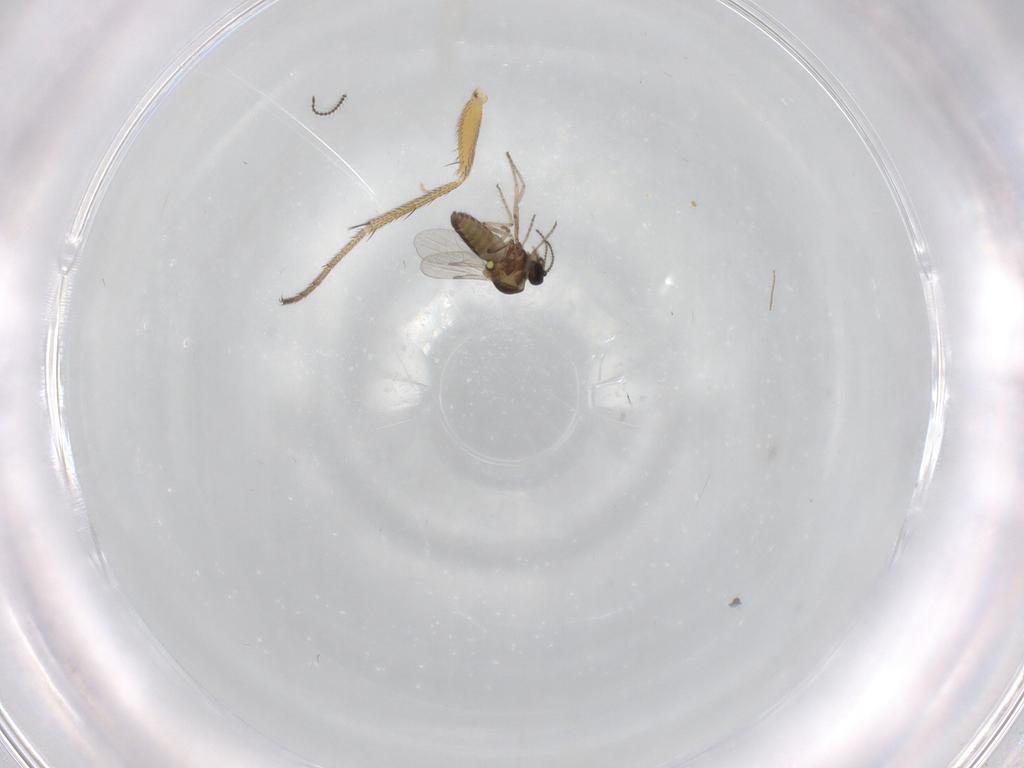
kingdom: Animalia
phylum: Arthropoda
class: Insecta
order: Diptera
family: Ceratopogonidae
